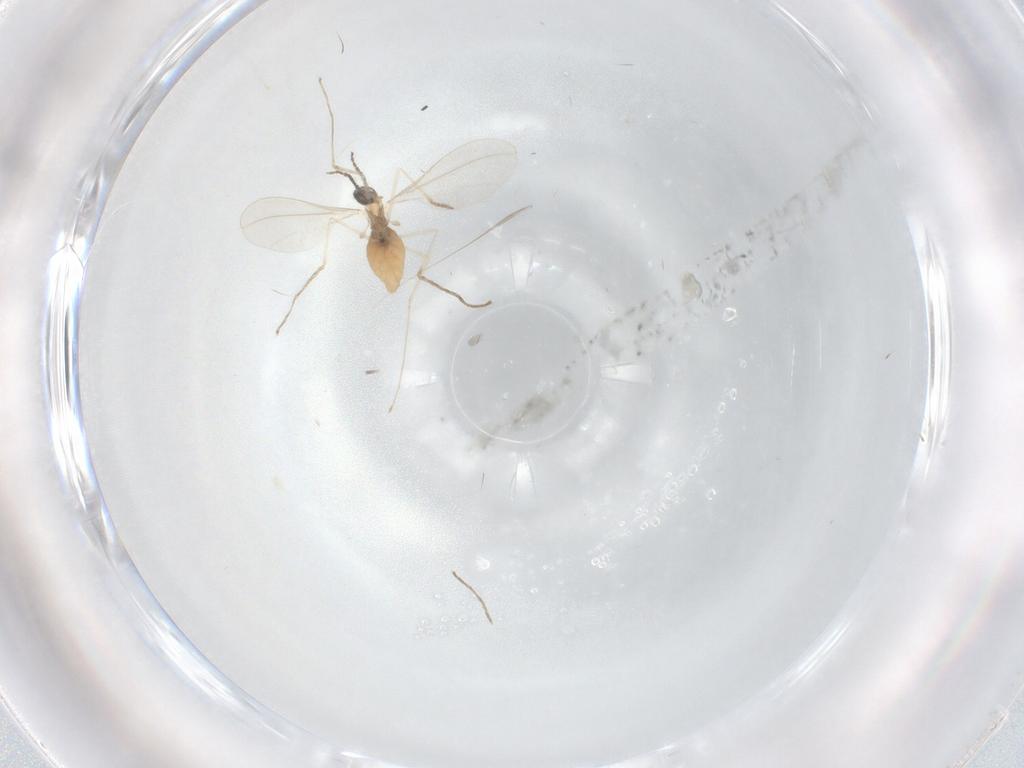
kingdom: Animalia
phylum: Arthropoda
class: Insecta
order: Diptera
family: Cecidomyiidae
